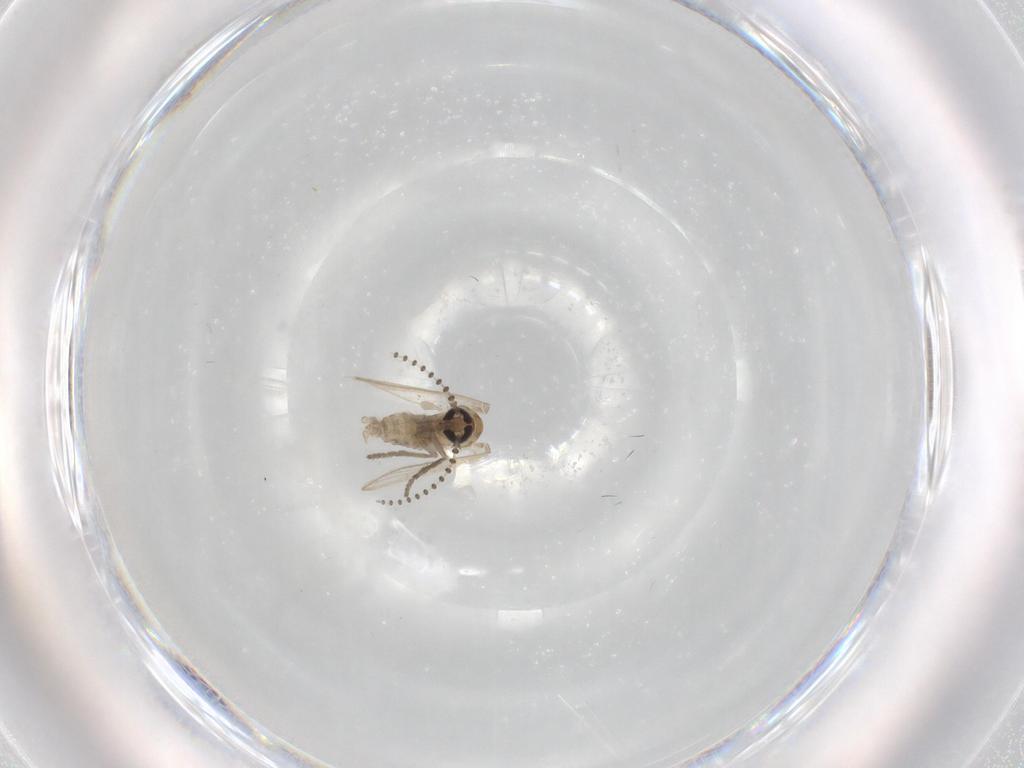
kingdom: Animalia
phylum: Arthropoda
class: Insecta
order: Diptera
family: Psychodidae
